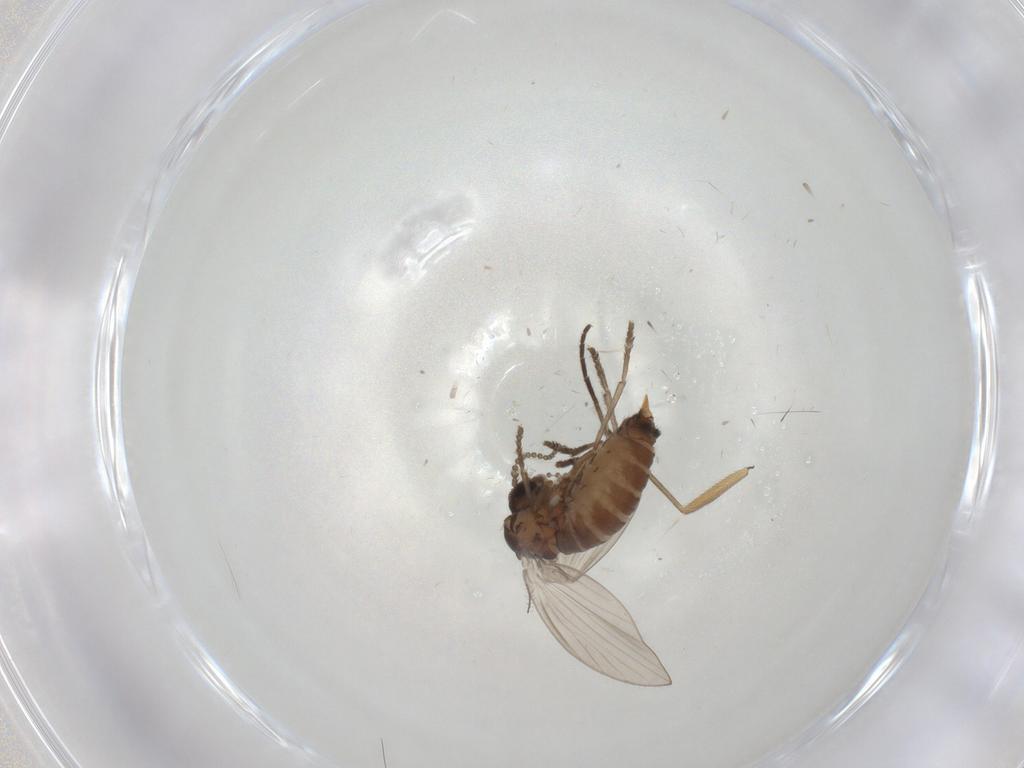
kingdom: Animalia
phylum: Arthropoda
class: Insecta
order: Diptera
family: Psychodidae
